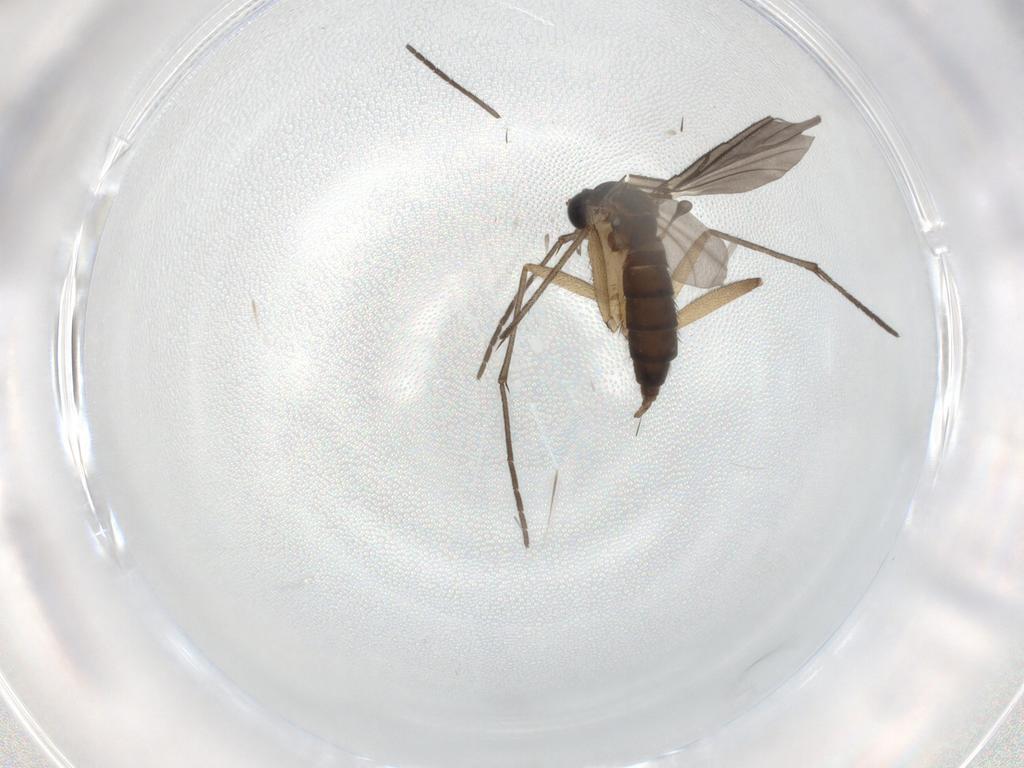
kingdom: Animalia
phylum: Arthropoda
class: Insecta
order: Diptera
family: Sciaridae
